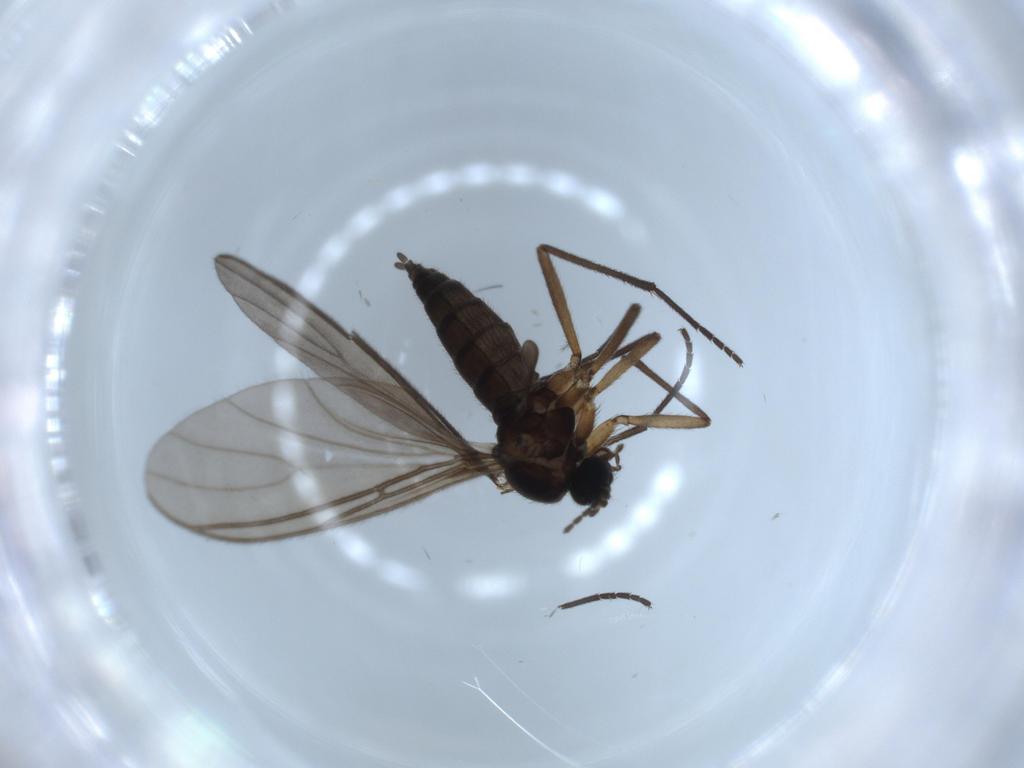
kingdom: Animalia
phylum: Arthropoda
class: Insecta
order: Diptera
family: Sciaridae
